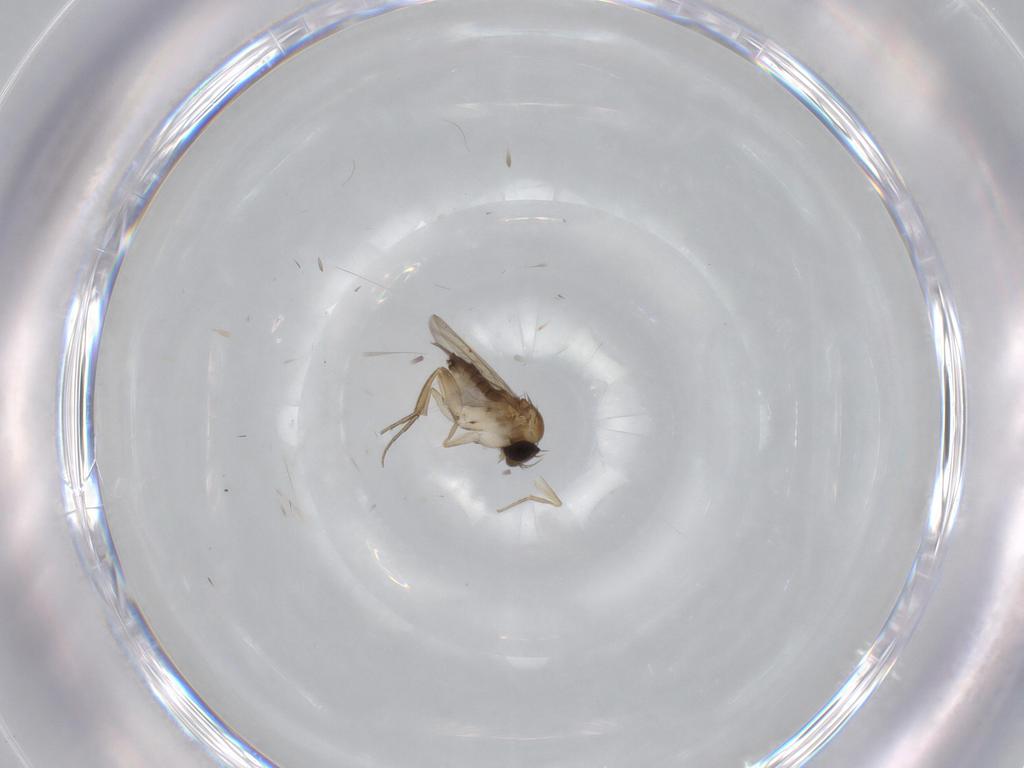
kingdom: Animalia
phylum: Arthropoda
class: Insecta
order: Diptera
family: Phoridae
